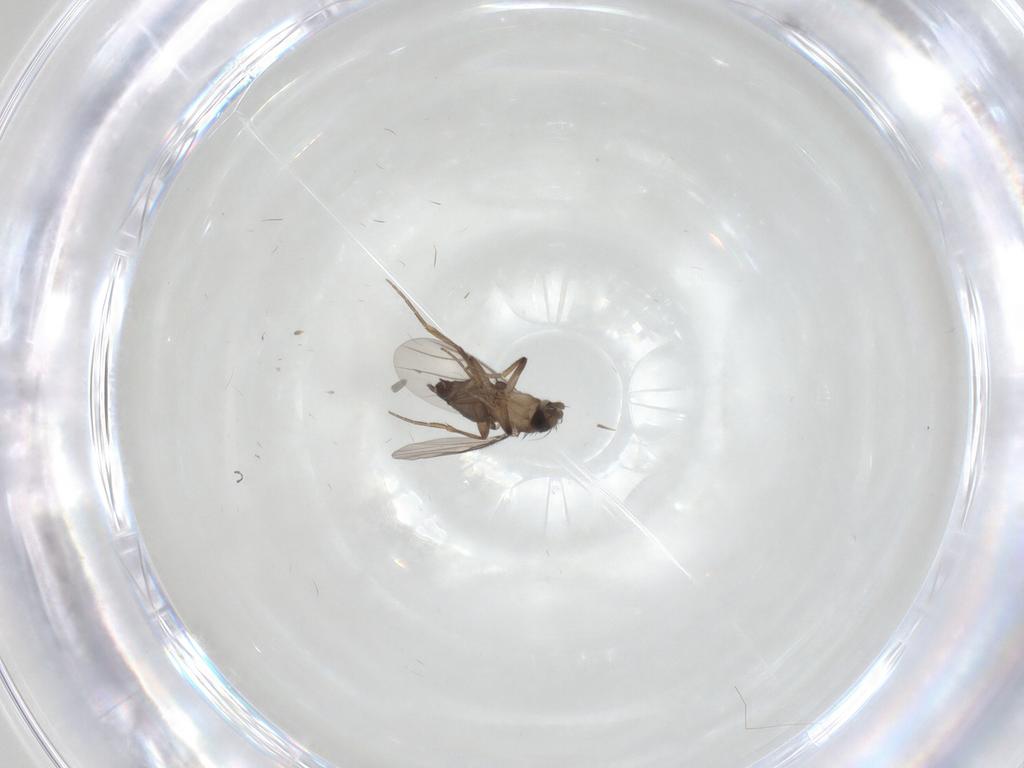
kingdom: Animalia
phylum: Arthropoda
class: Insecta
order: Diptera
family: Phoridae
